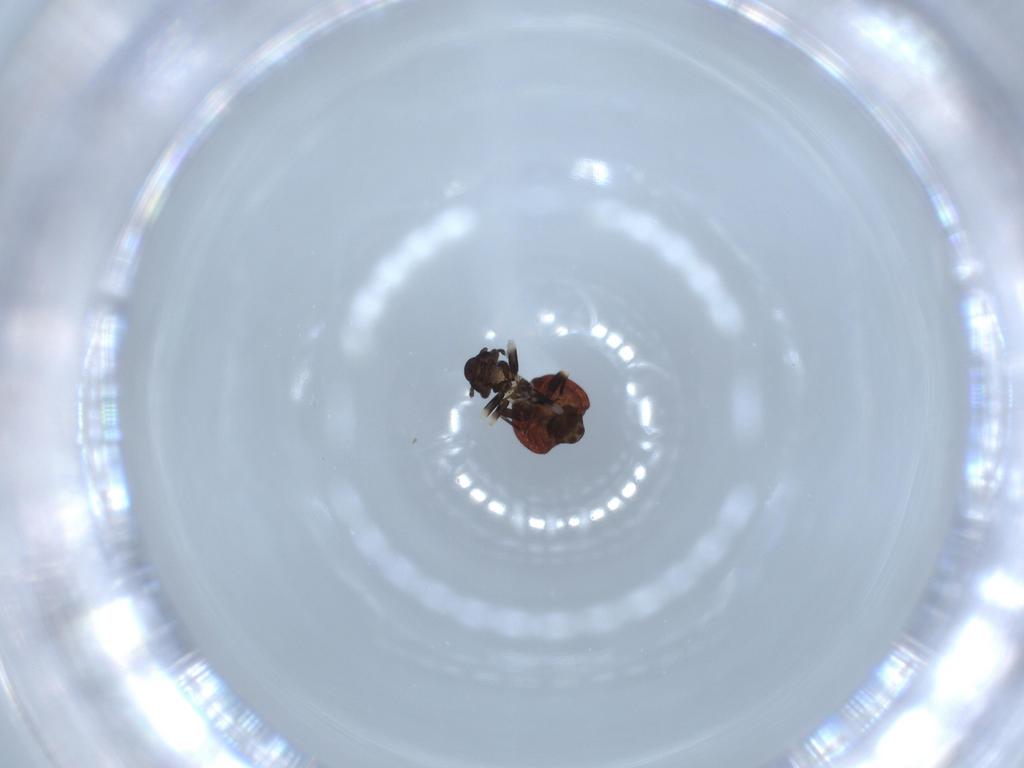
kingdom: Animalia
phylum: Arthropoda
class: Insecta
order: Psocodea
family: Lepidopsocidae
